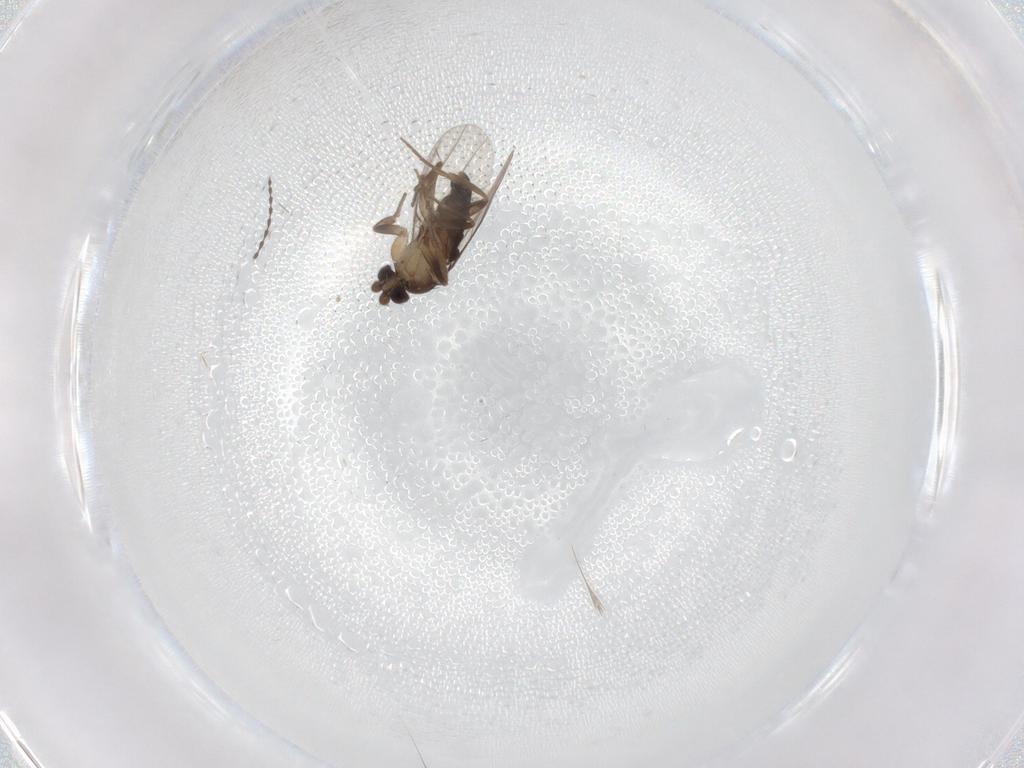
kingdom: Animalia
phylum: Arthropoda
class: Insecta
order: Diptera
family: Phoridae
